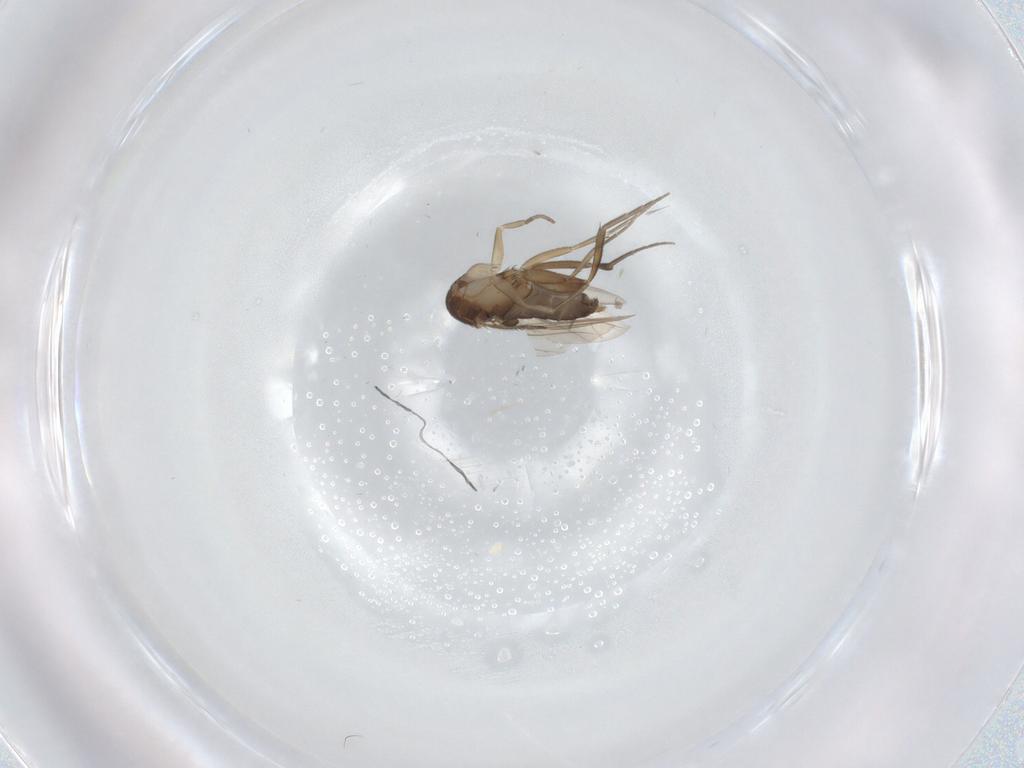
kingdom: Animalia
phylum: Arthropoda
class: Insecta
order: Diptera
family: Phoridae
